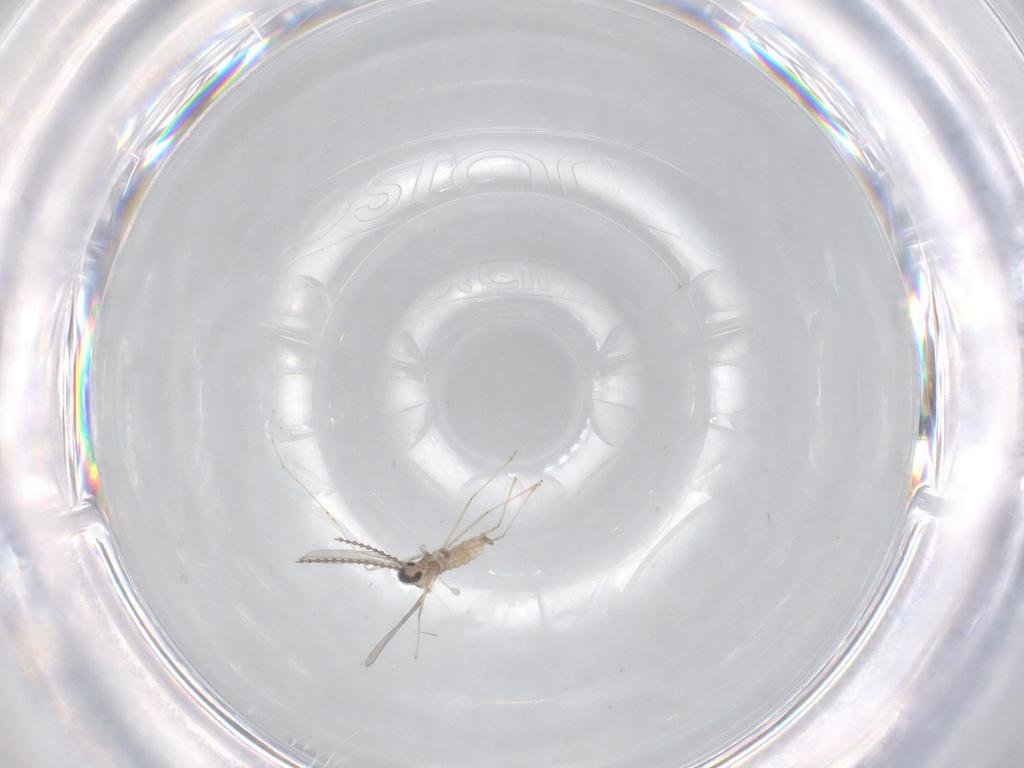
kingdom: Animalia
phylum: Arthropoda
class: Insecta
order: Diptera
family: Cecidomyiidae
